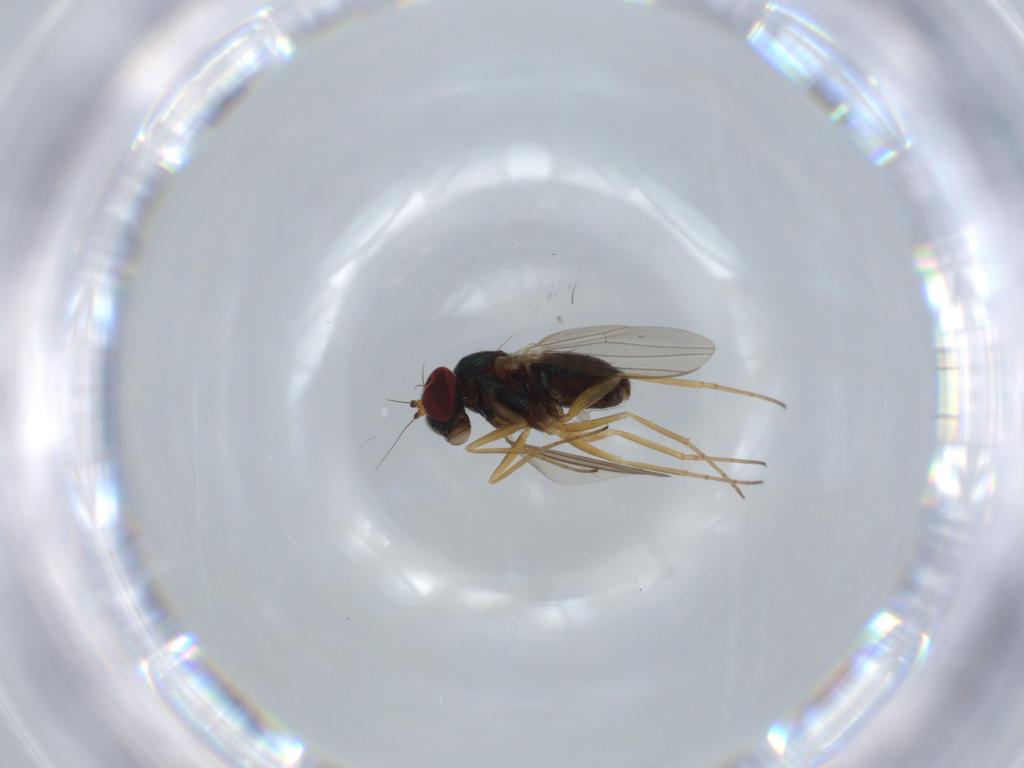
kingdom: Animalia
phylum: Arthropoda
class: Insecta
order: Diptera
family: Dolichopodidae
